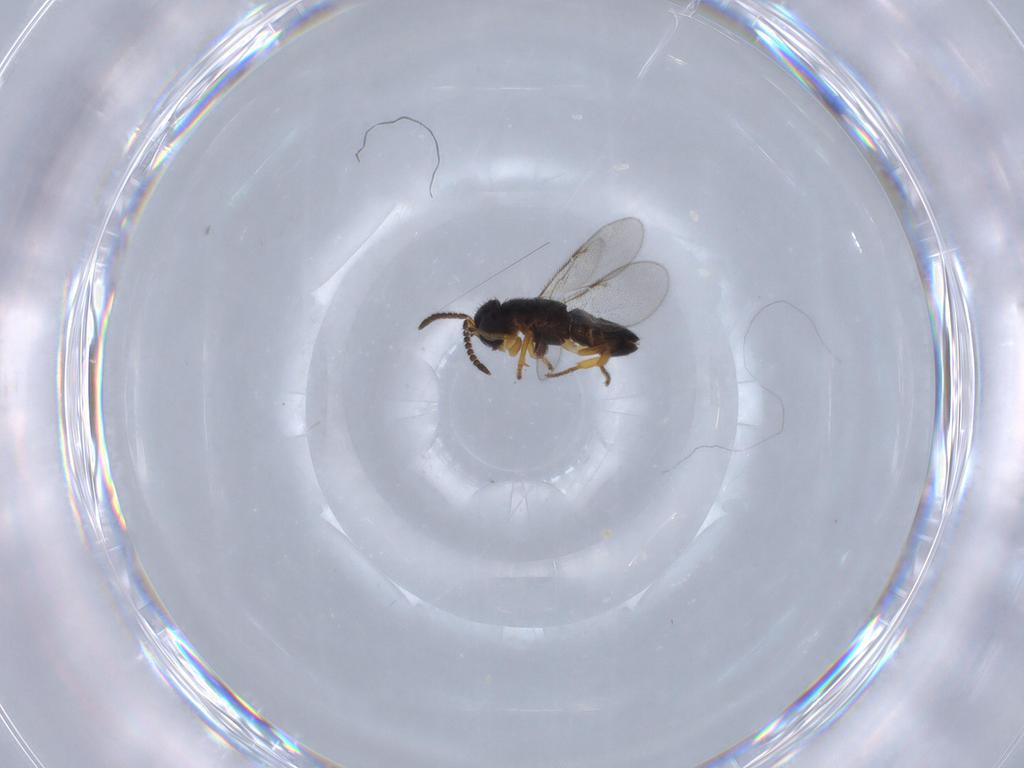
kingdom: Animalia
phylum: Arthropoda
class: Insecta
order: Hymenoptera
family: Platygastridae
